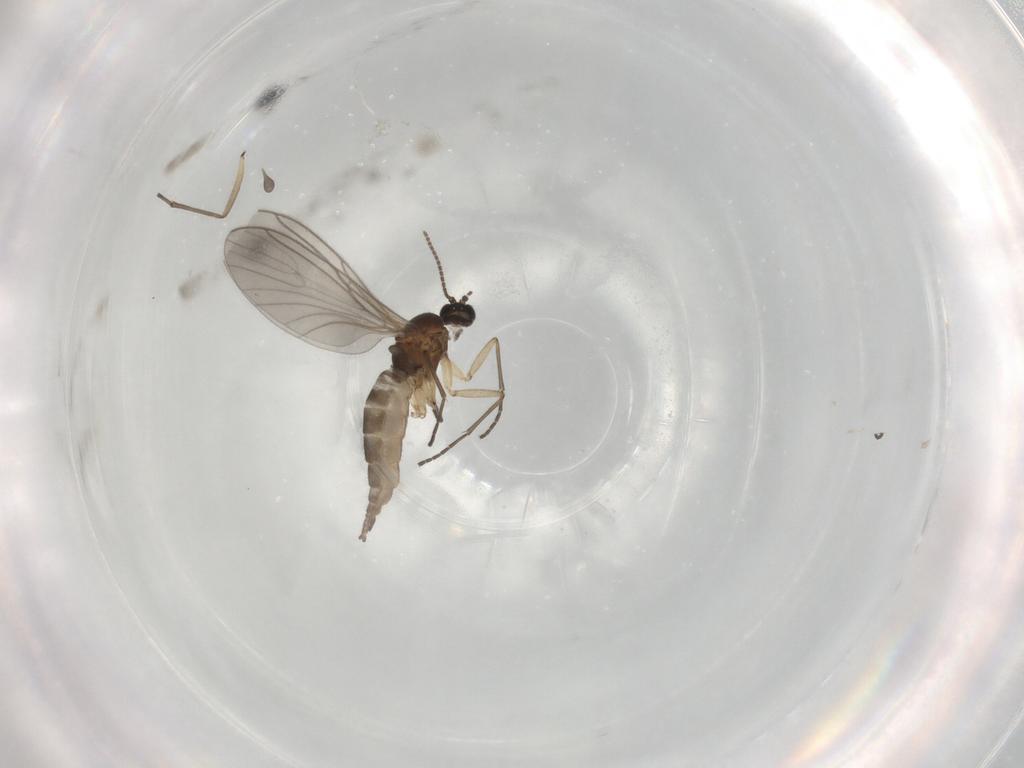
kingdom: Animalia
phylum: Arthropoda
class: Insecta
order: Diptera
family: Sciaridae
